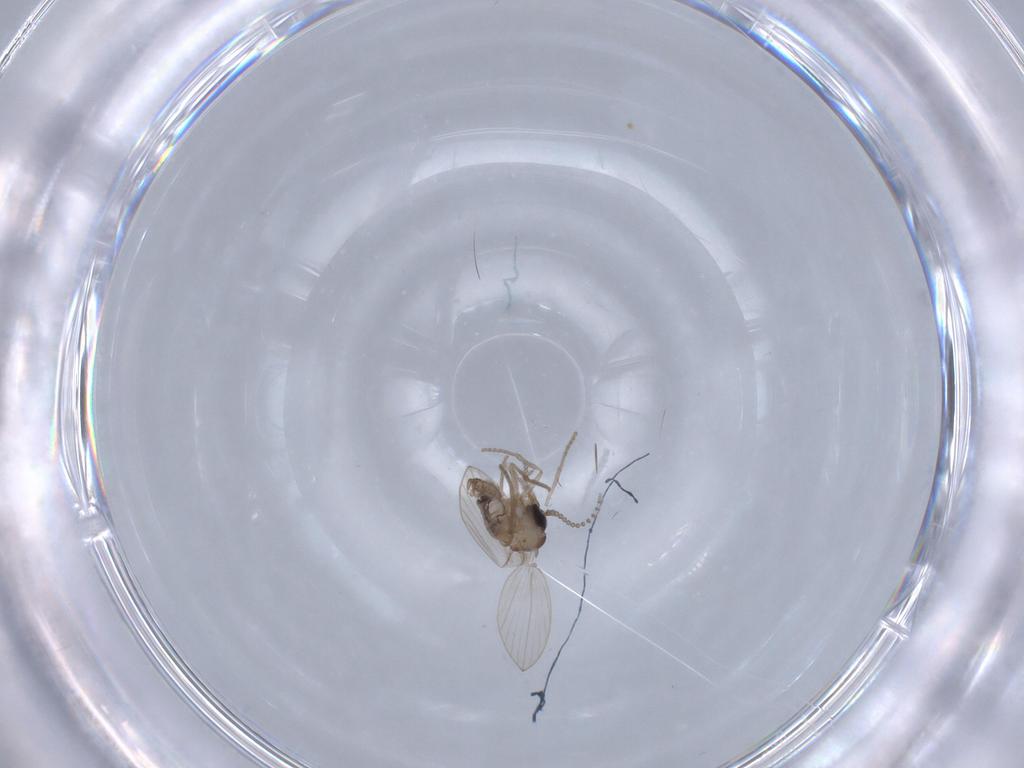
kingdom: Animalia
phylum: Arthropoda
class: Insecta
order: Diptera
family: Psychodidae
